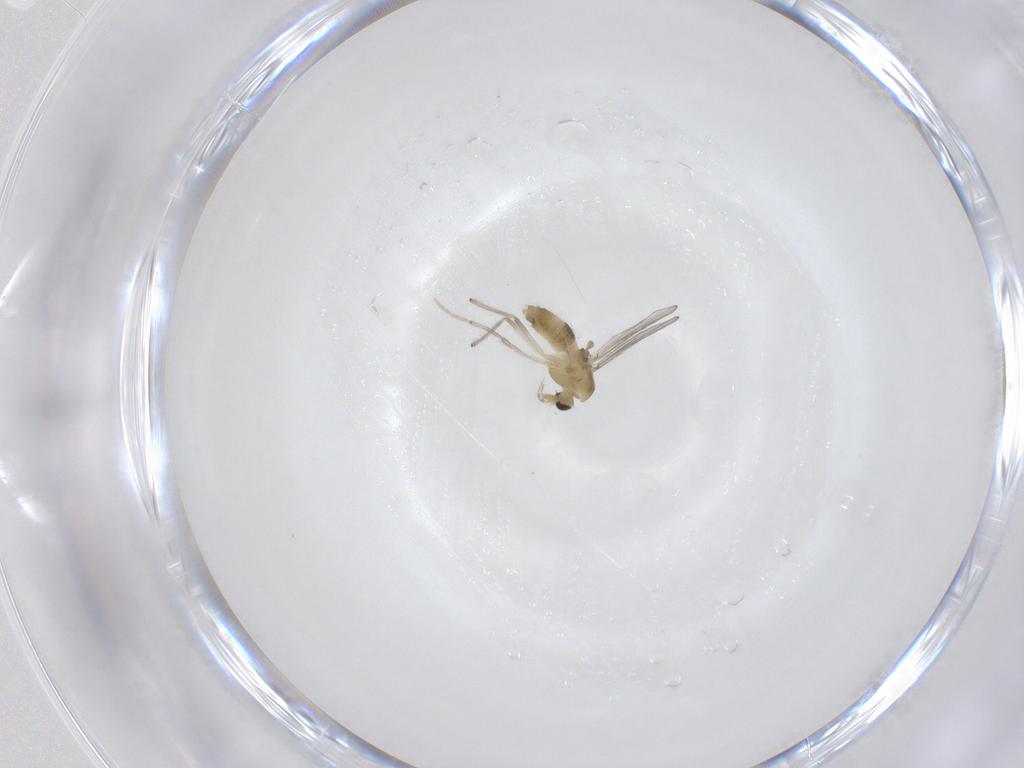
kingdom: Animalia
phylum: Arthropoda
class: Insecta
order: Diptera
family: Chironomidae
